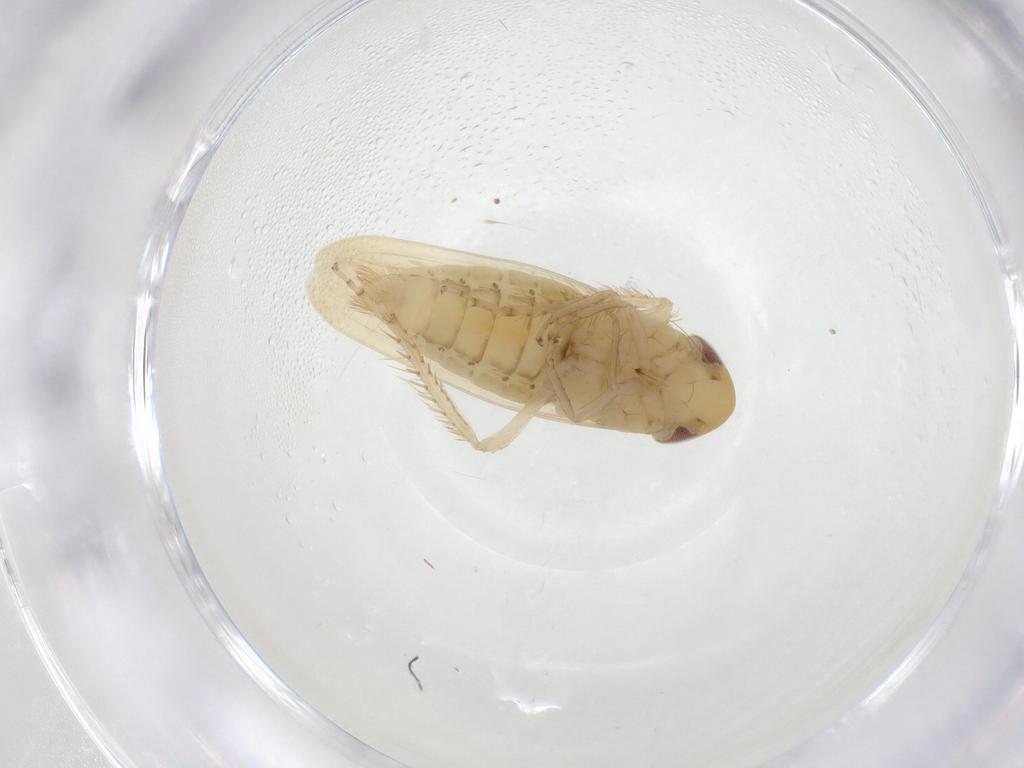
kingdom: Animalia
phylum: Arthropoda
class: Insecta
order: Hemiptera
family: Cicadellidae
